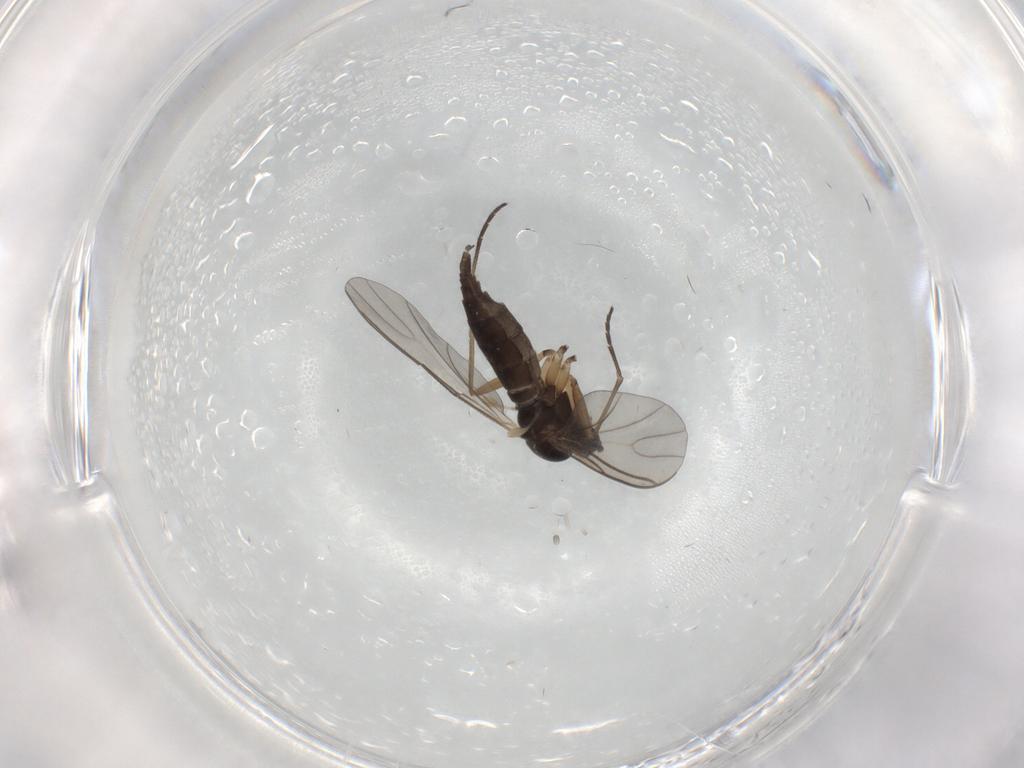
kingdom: Animalia
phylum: Arthropoda
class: Insecta
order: Diptera
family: Sciaridae
